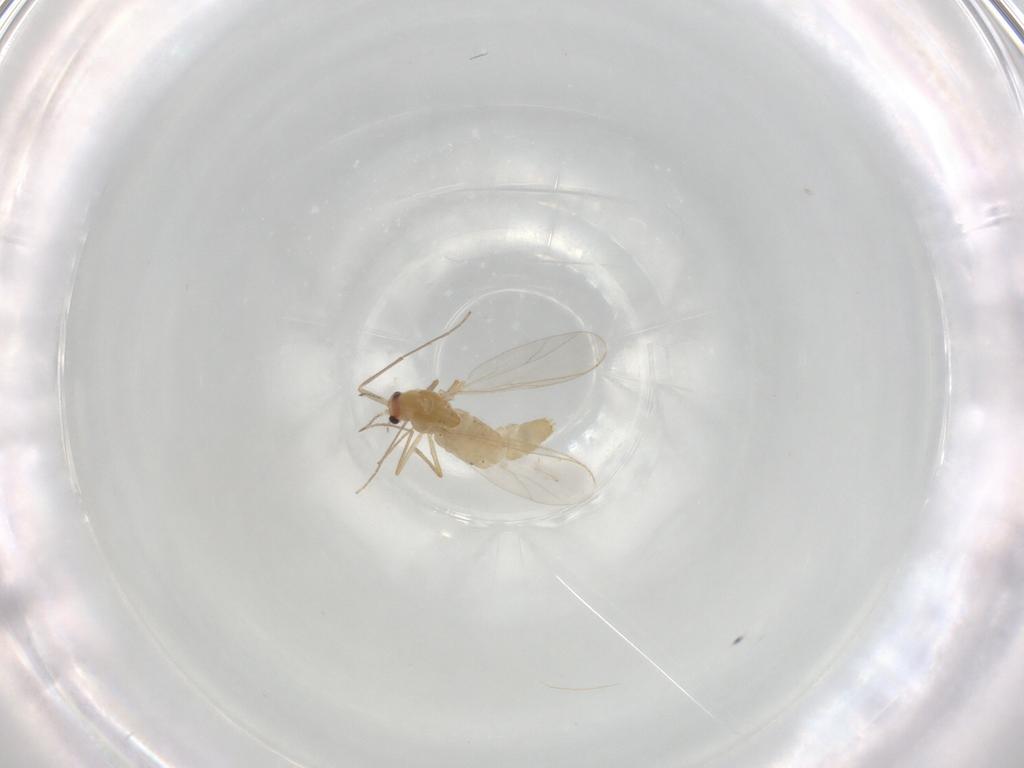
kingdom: Animalia
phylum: Arthropoda
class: Insecta
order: Diptera
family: Chironomidae
